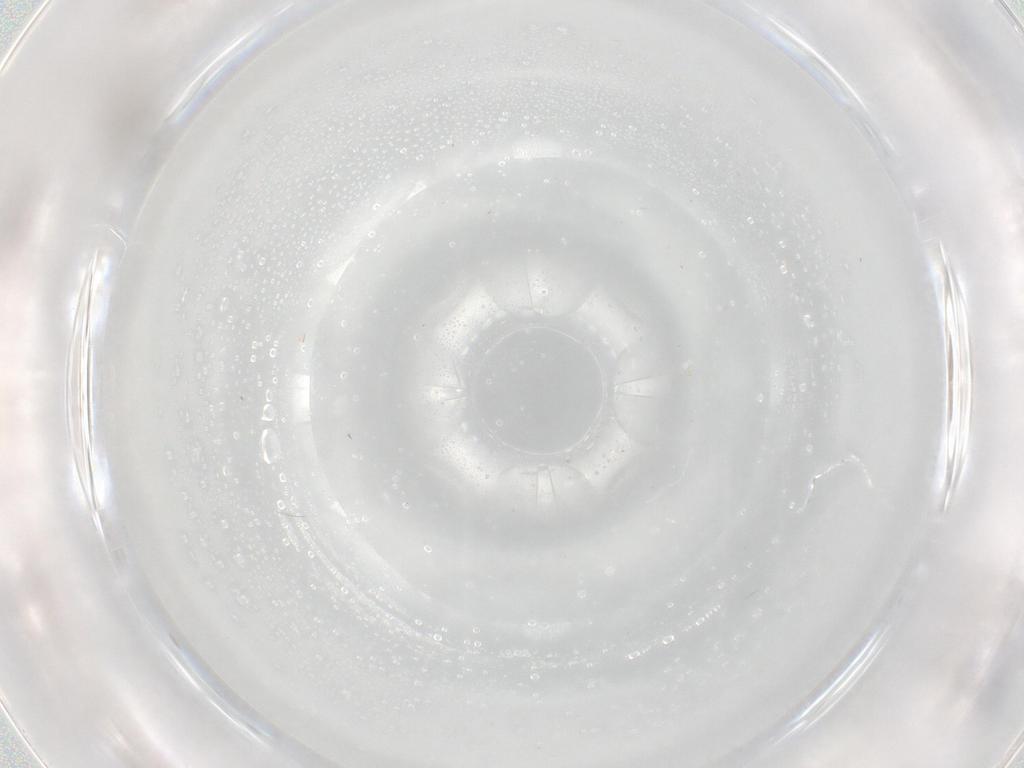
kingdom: Animalia
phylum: Arthropoda
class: Insecta
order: Diptera
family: Cecidomyiidae
